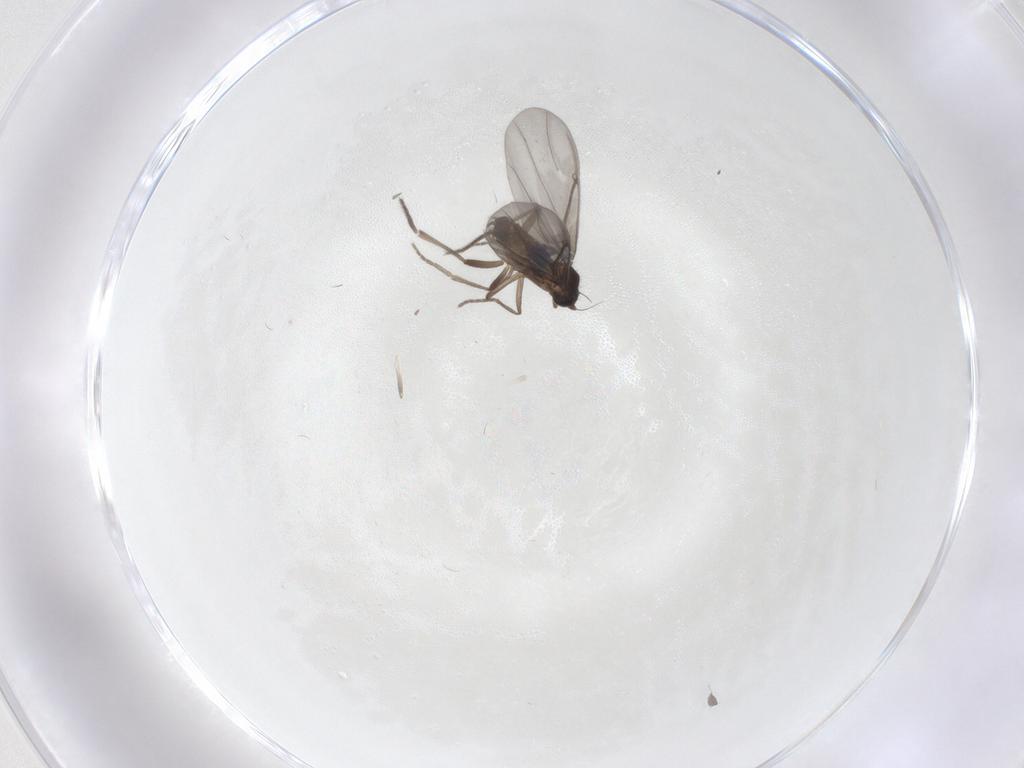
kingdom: Animalia
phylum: Arthropoda
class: Insecta
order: Diptera
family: Phoridae
